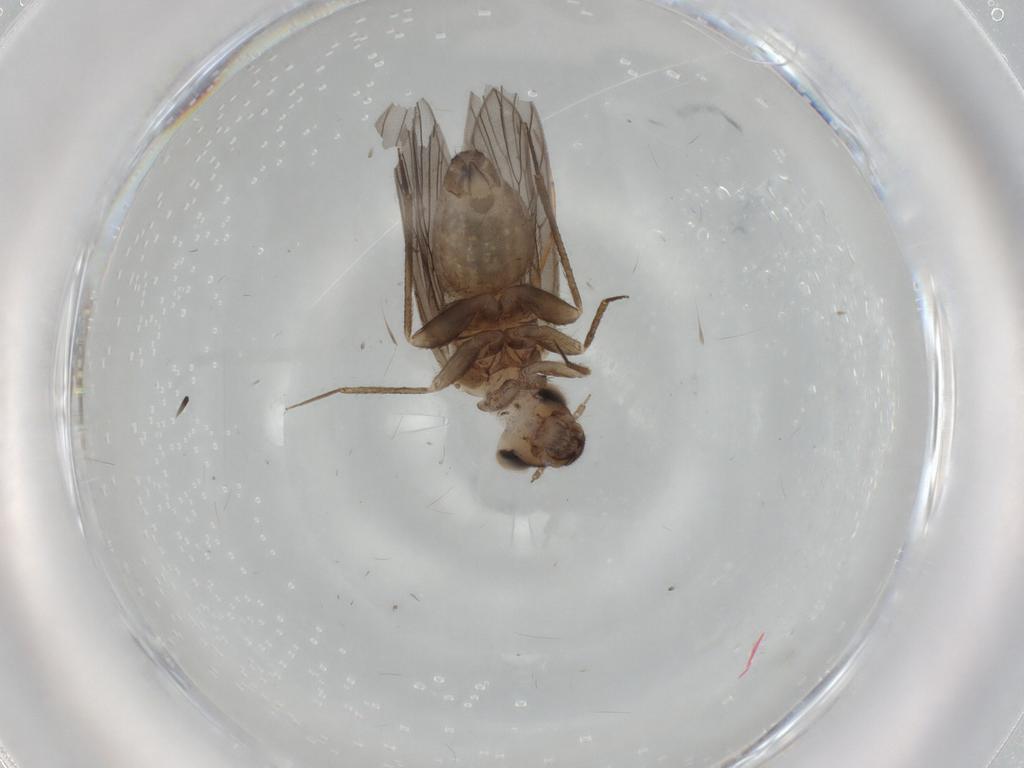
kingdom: Animalia
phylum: Arthropoda
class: Insecta
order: Psocodea
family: Lepidopsocidae
